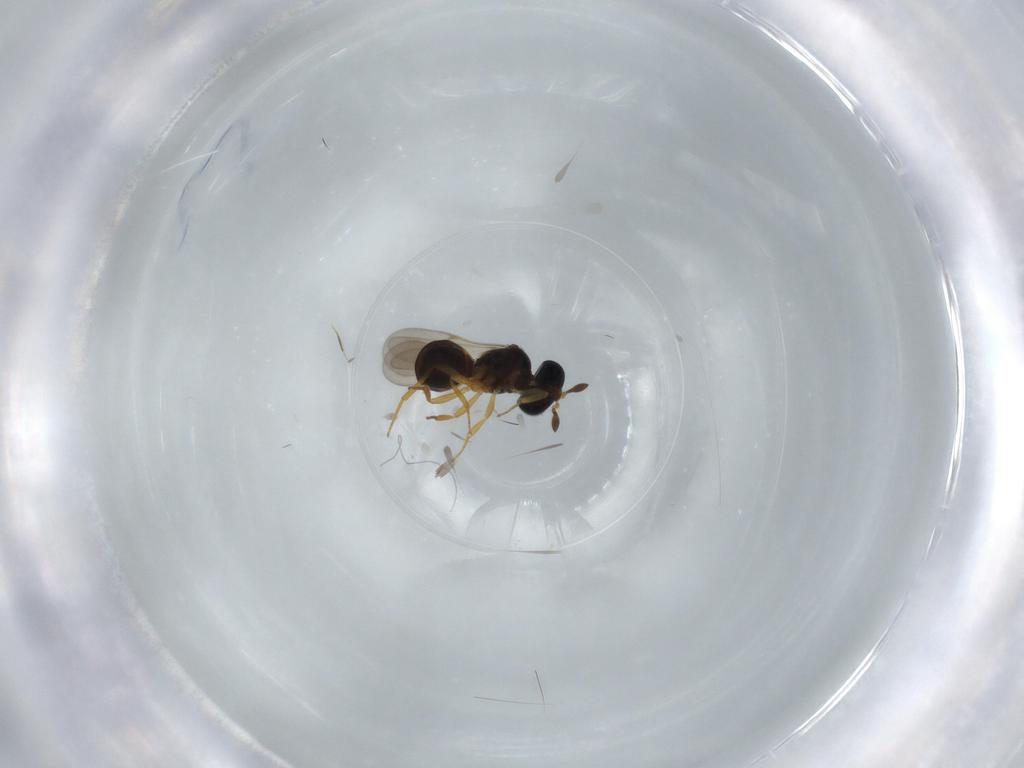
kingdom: Animalia
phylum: Arthropoda
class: Insecta
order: Hymenoptera
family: Scelionidae
